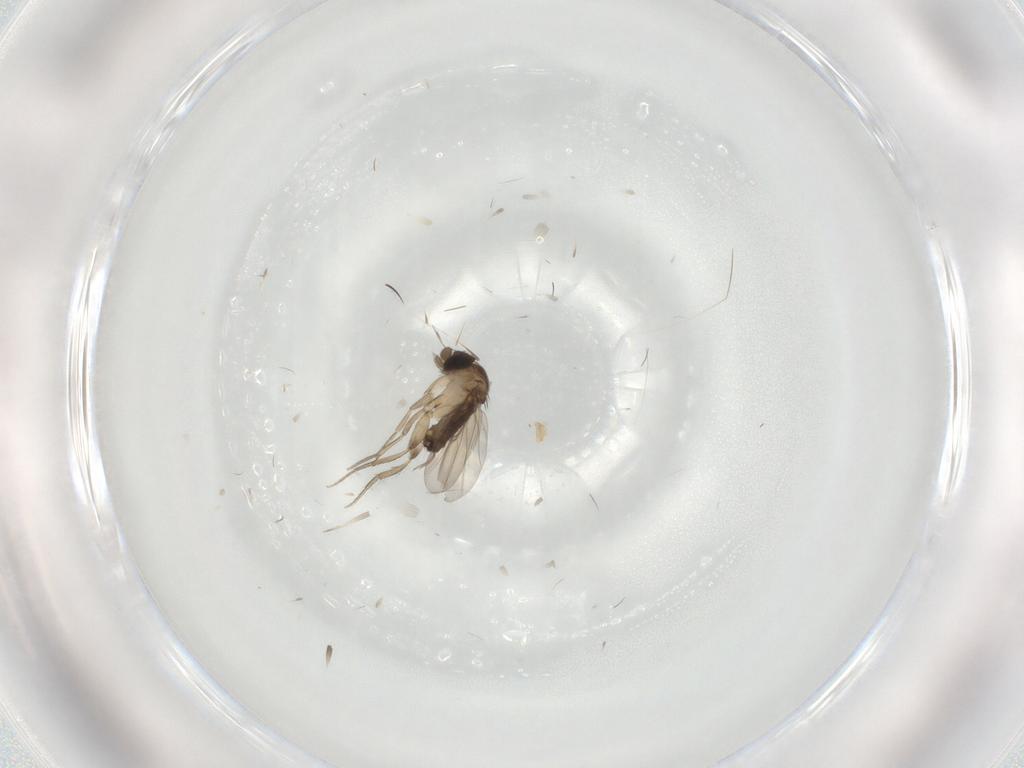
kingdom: Animalia
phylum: Arthropoda
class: Insecta
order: Diptera
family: Phoridae
